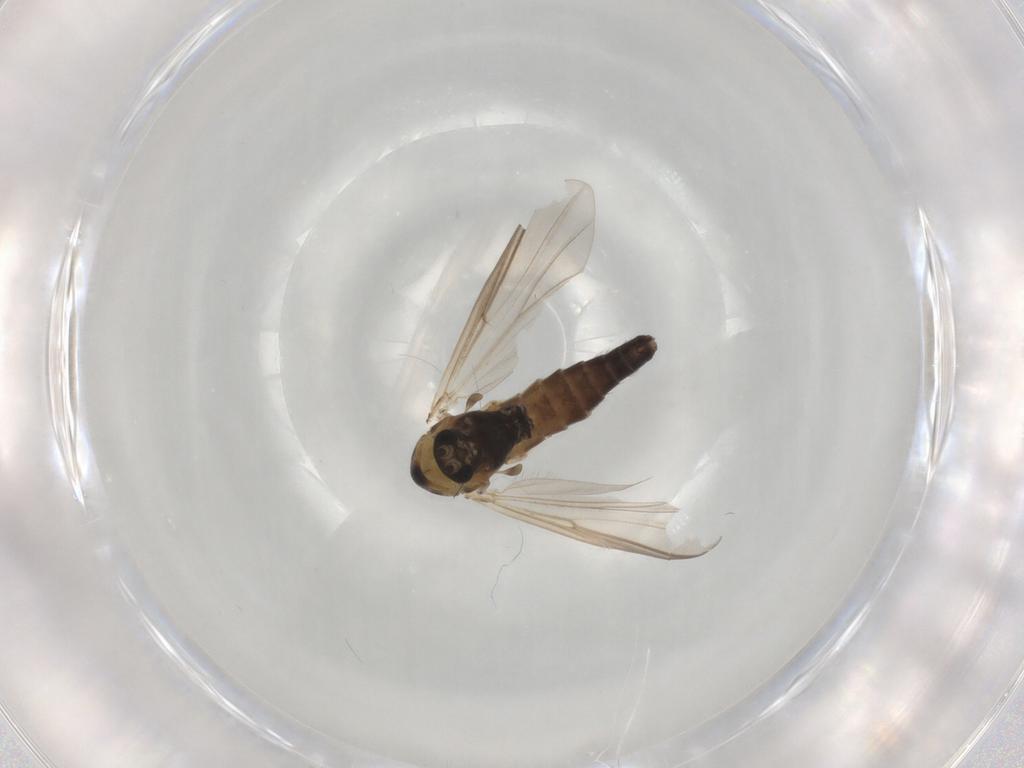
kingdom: Animalia
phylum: Arthropoda
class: Insecta
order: Diptera
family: Chironomidae
